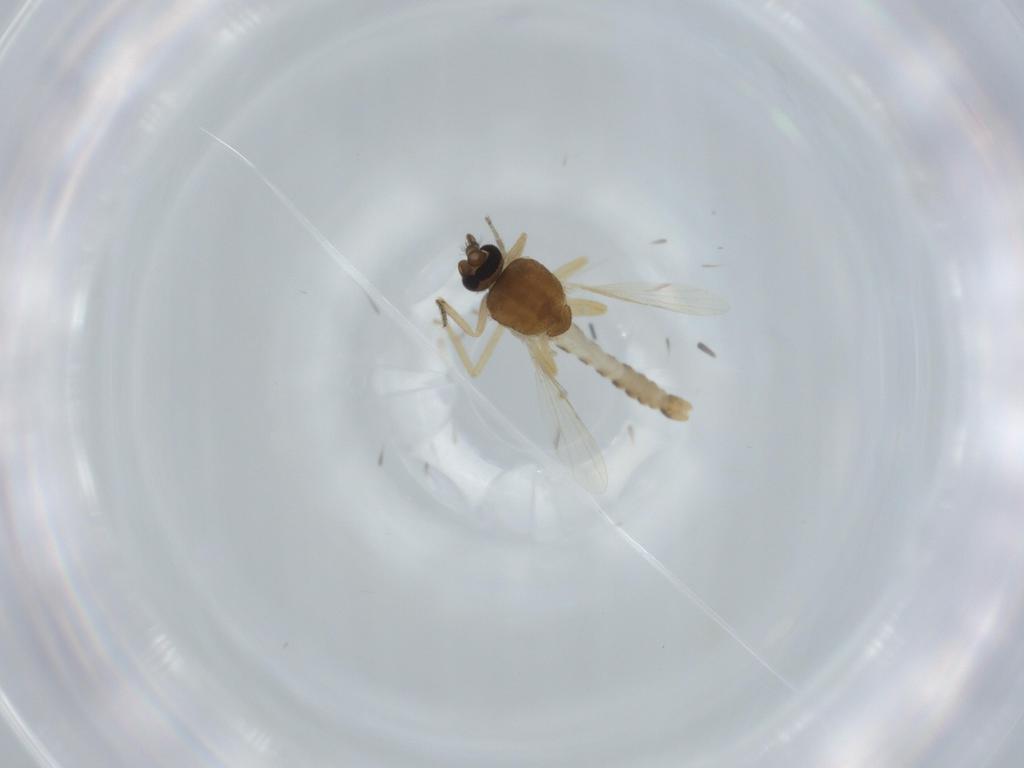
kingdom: Animalia
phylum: Arthropoda
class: Insecta
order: Diptera
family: Ceratopogonidae
